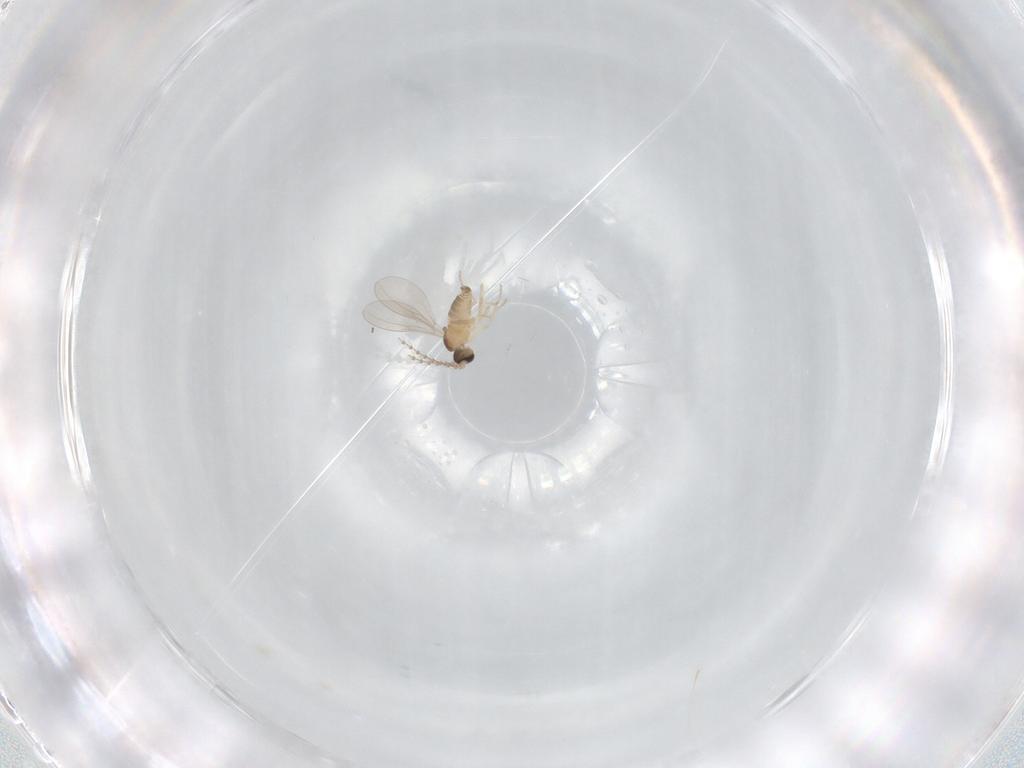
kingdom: Animalia
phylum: Arthropoda
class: Insecta
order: Diptera
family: Cecidomyiidae
